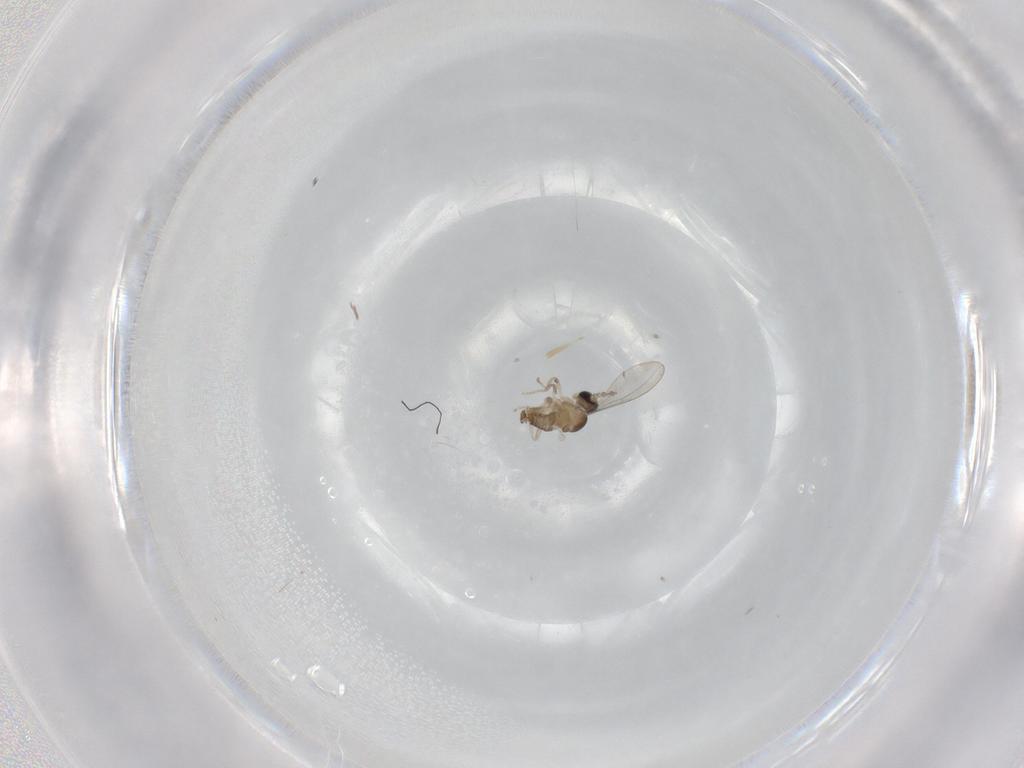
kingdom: Animalia
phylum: Arthropoda
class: Insecta
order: Diptera
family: Cecidomyiidae
